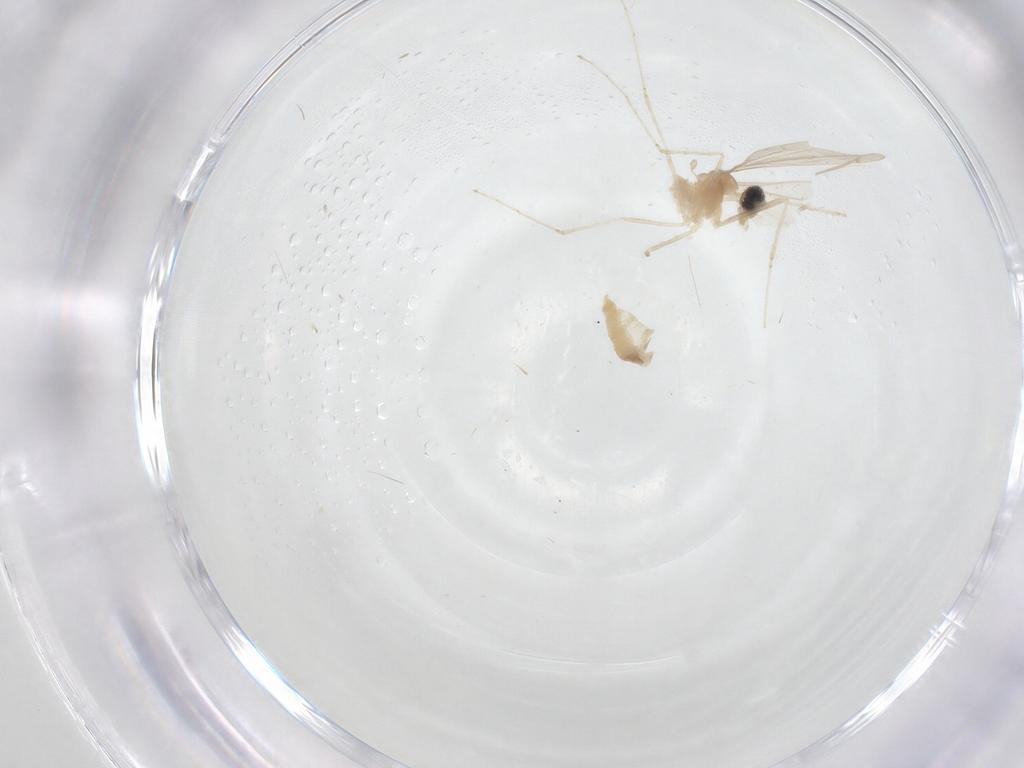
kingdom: Animalia
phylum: Arthropoda
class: Insecta
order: Diptera
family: Cecidomyiidae
